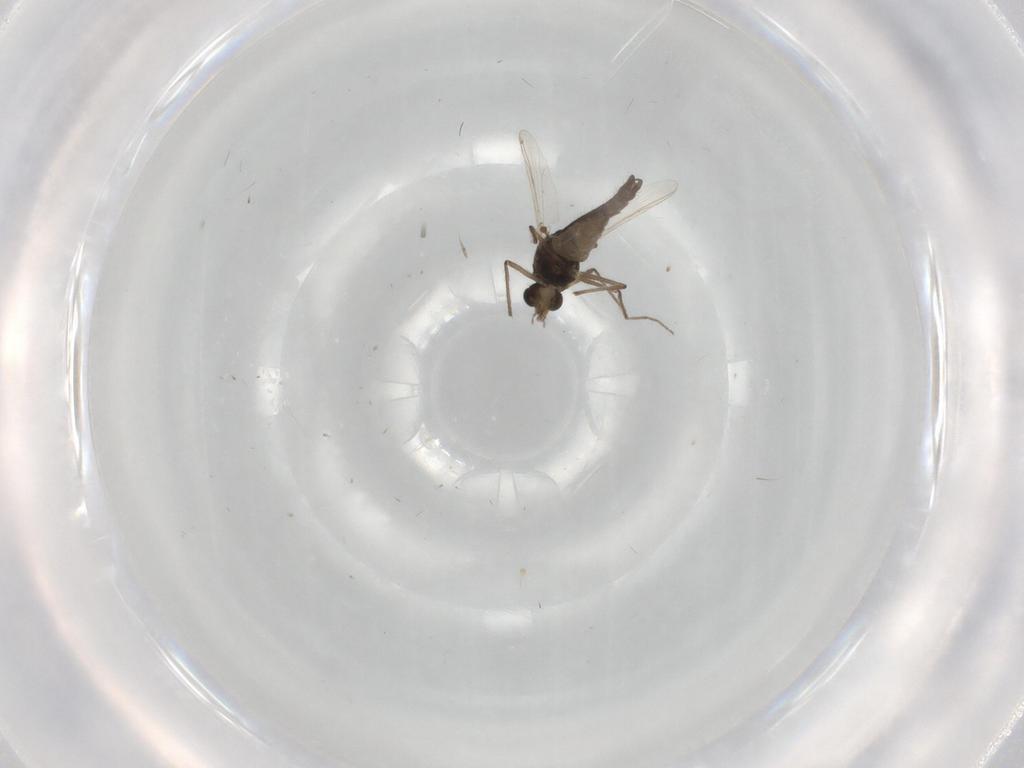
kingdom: Animalia
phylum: Arthropoda
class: Insecta
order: Diptera
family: Chironomidae
